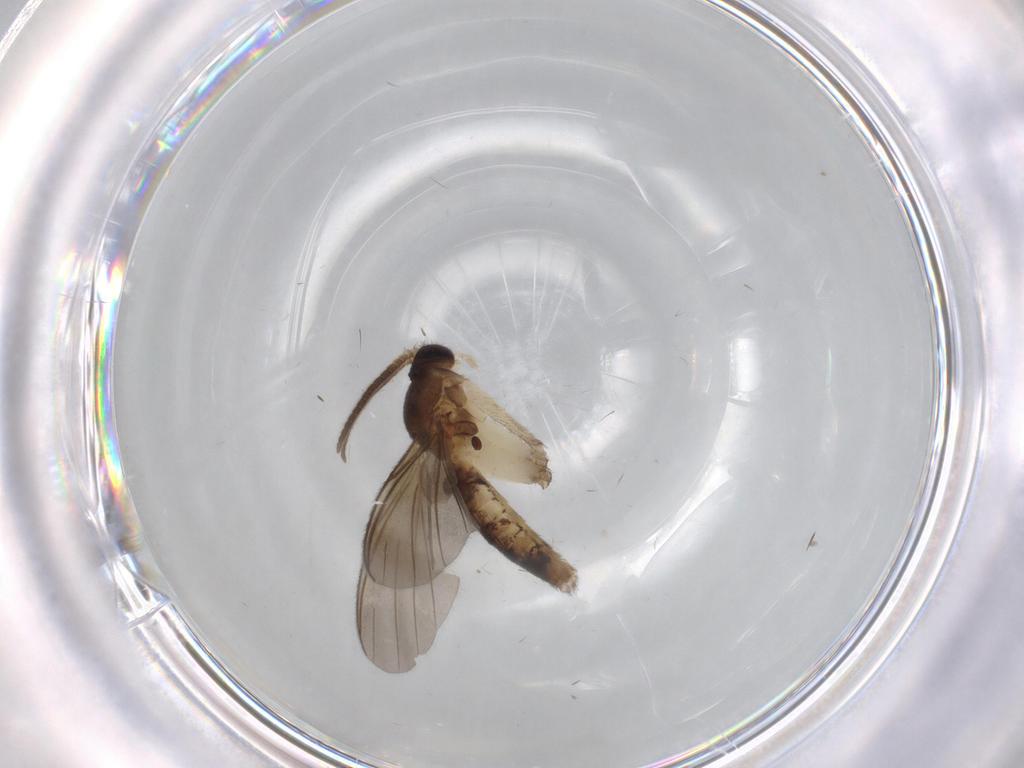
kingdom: Animalia
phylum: Arthropoda
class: Insecta
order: Diptera
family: Mycetophilidae
